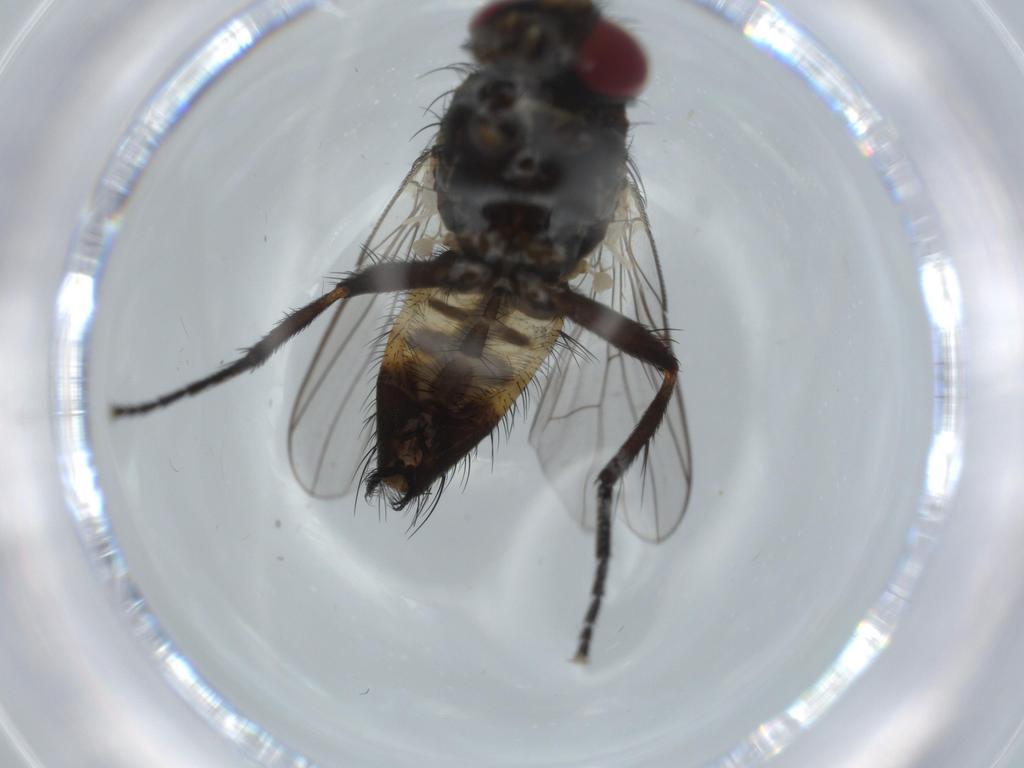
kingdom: Animalia
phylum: Arthropoda
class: Insecta
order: Diptera
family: Fannia
